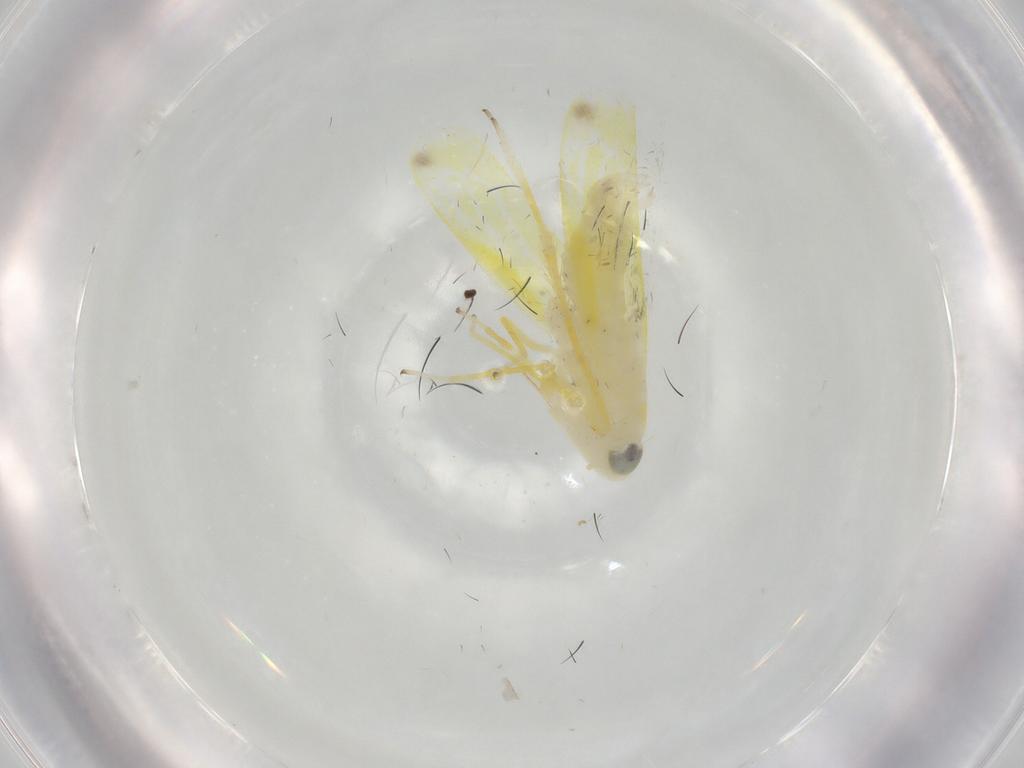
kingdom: Animalia
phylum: Arthropoda
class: Insecta
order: Hemiptera
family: Cicadellidae
